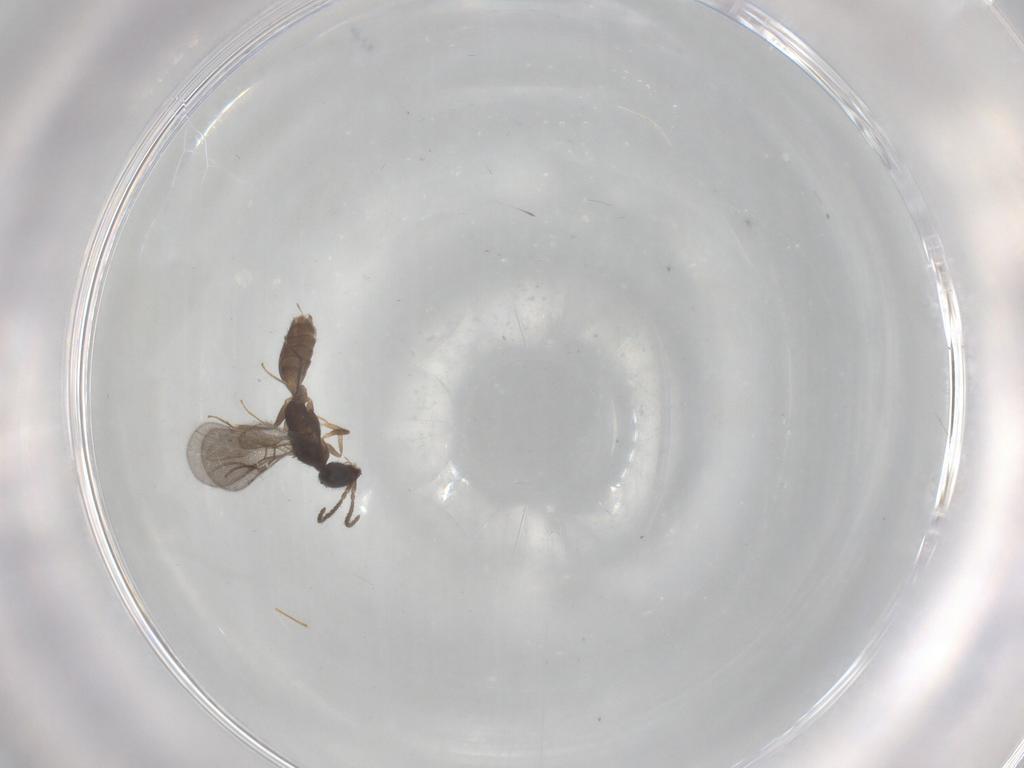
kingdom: Animalia
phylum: Arthropoda
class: Insecta
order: Hymenoptera
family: Bethylidae
